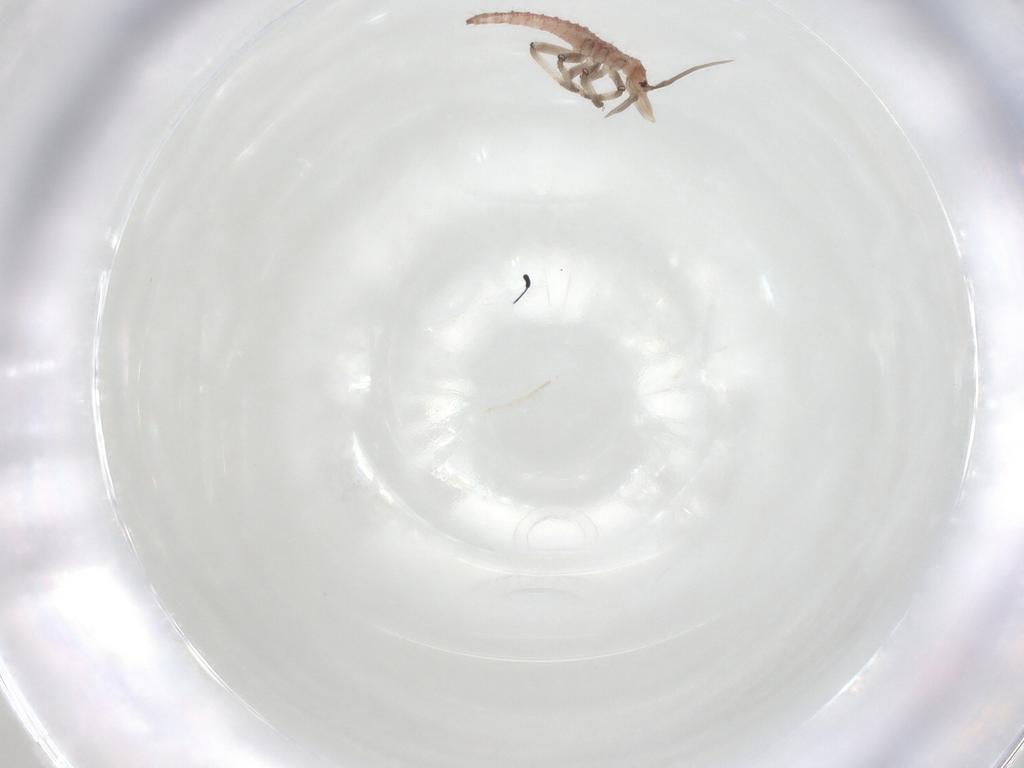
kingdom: Animalia
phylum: Arthropoda
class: Insecta
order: Neuroptera
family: Hemerobiidae
